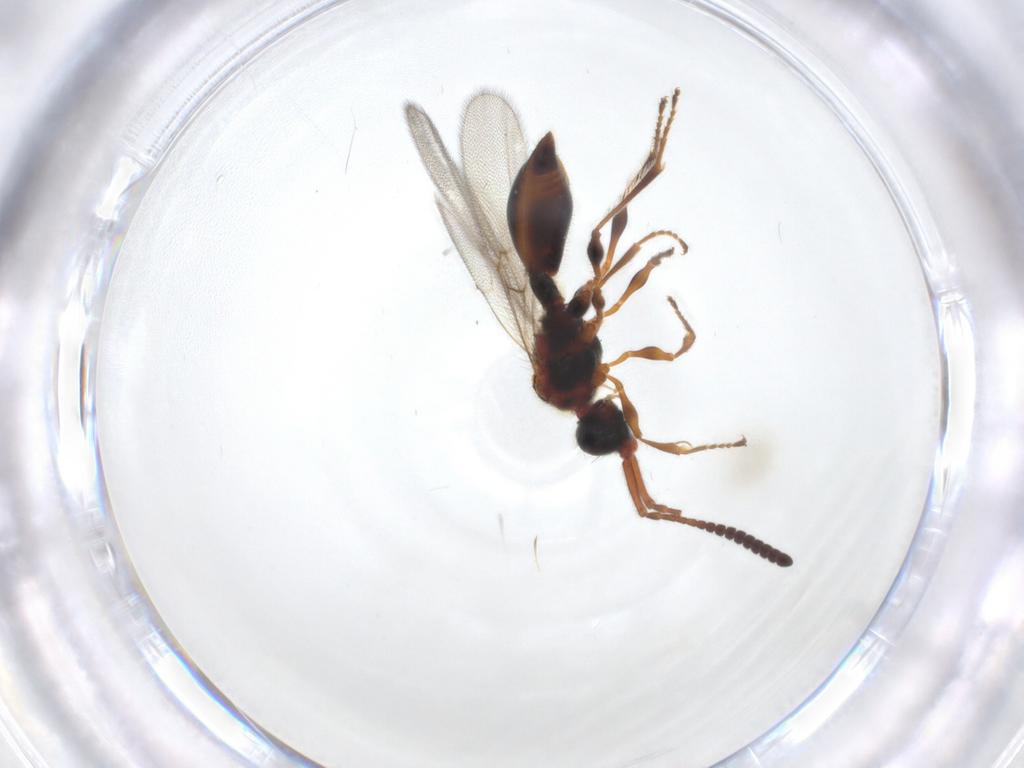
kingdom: Animalia
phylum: Arthropoda
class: Insecta
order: Hymenoptera
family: Diapriidae
